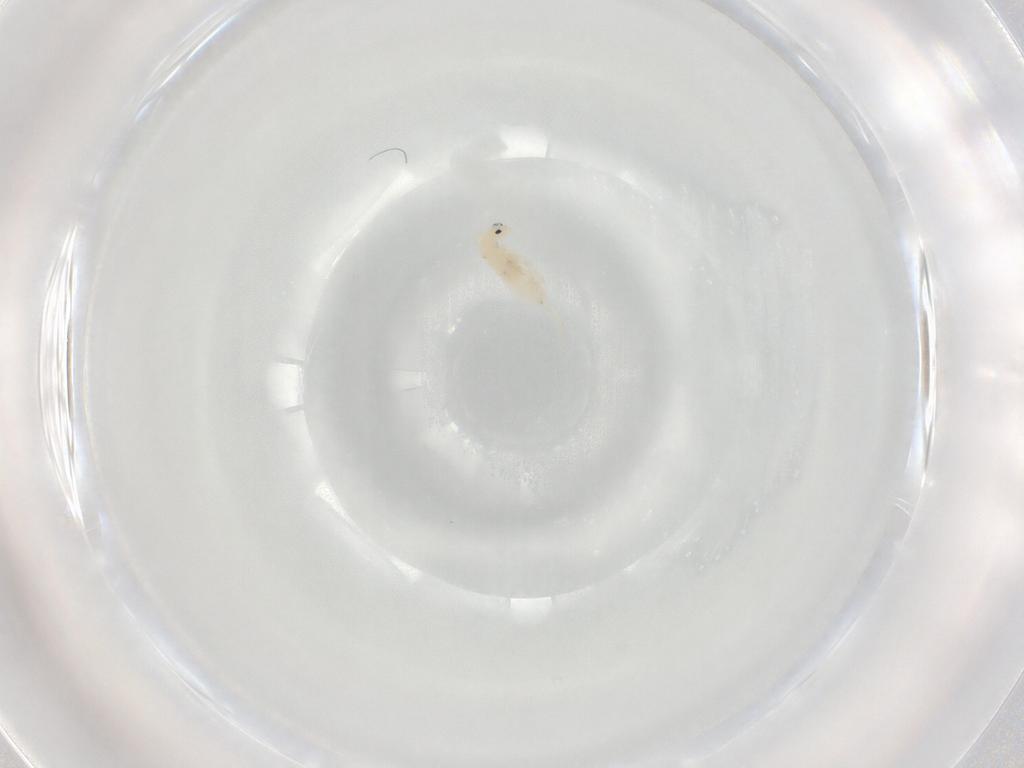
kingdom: Animalia
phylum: Arthropoda
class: Collembola
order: Entomobryomorpha
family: Entomobryidae
